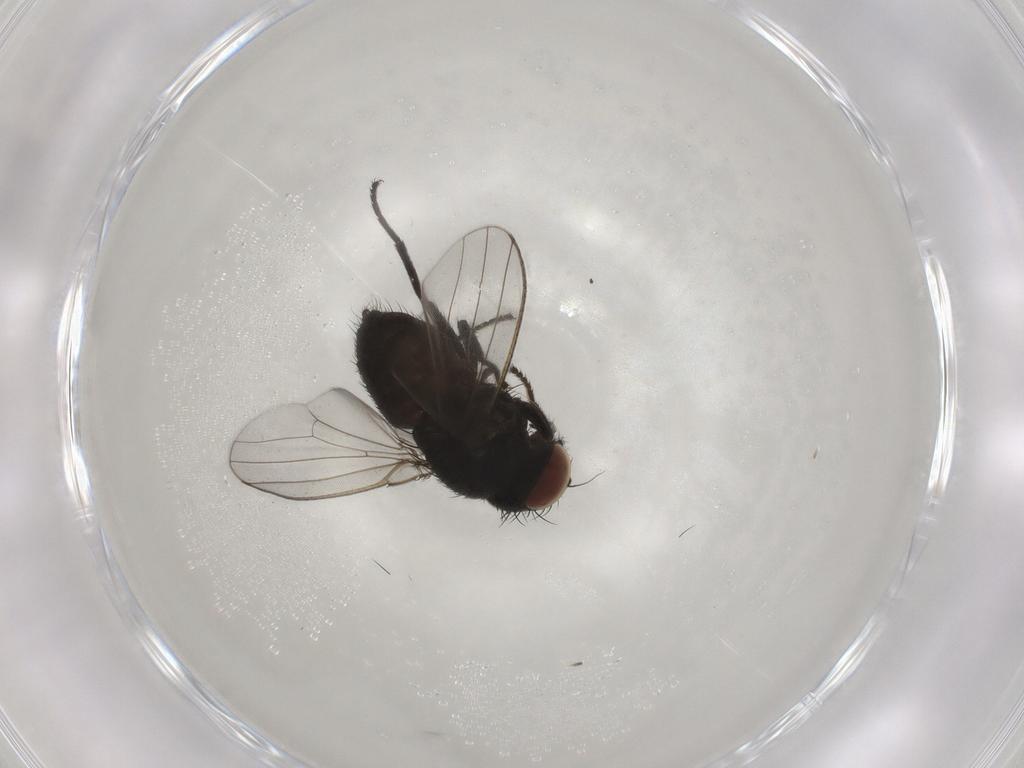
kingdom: Animalia
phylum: Arthropoda
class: Insecta
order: Diptera
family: Milichiidae
